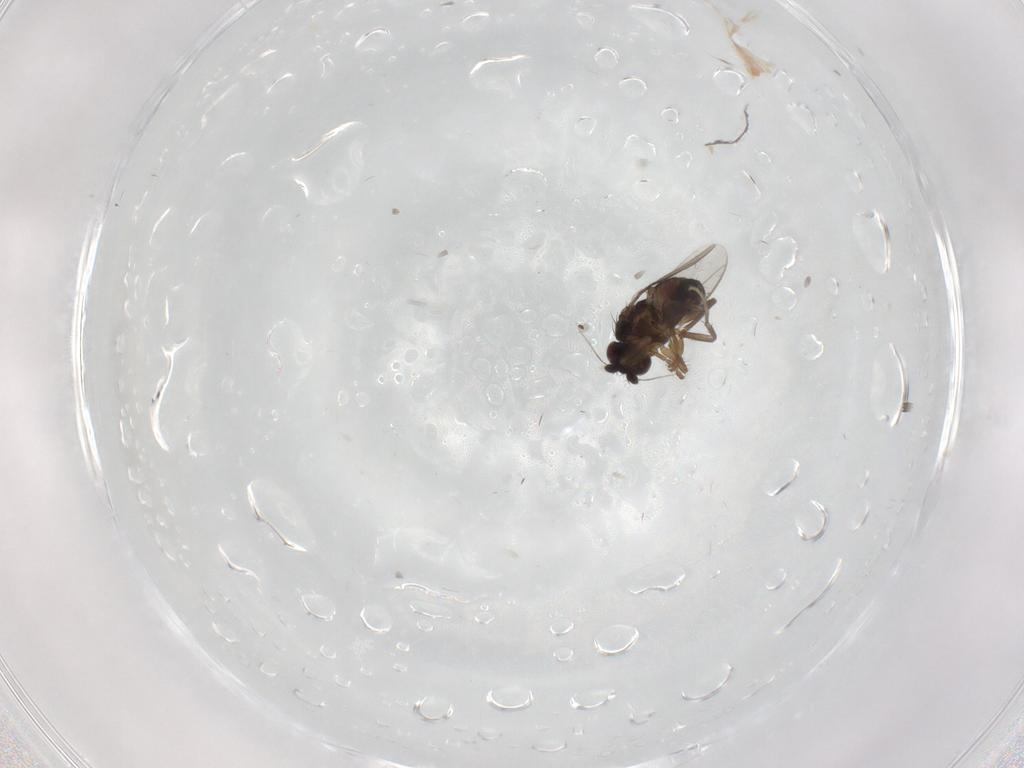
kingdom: Animalia
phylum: Arthropoda
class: Insecta
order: Diptera
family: Sphaeroceridae
